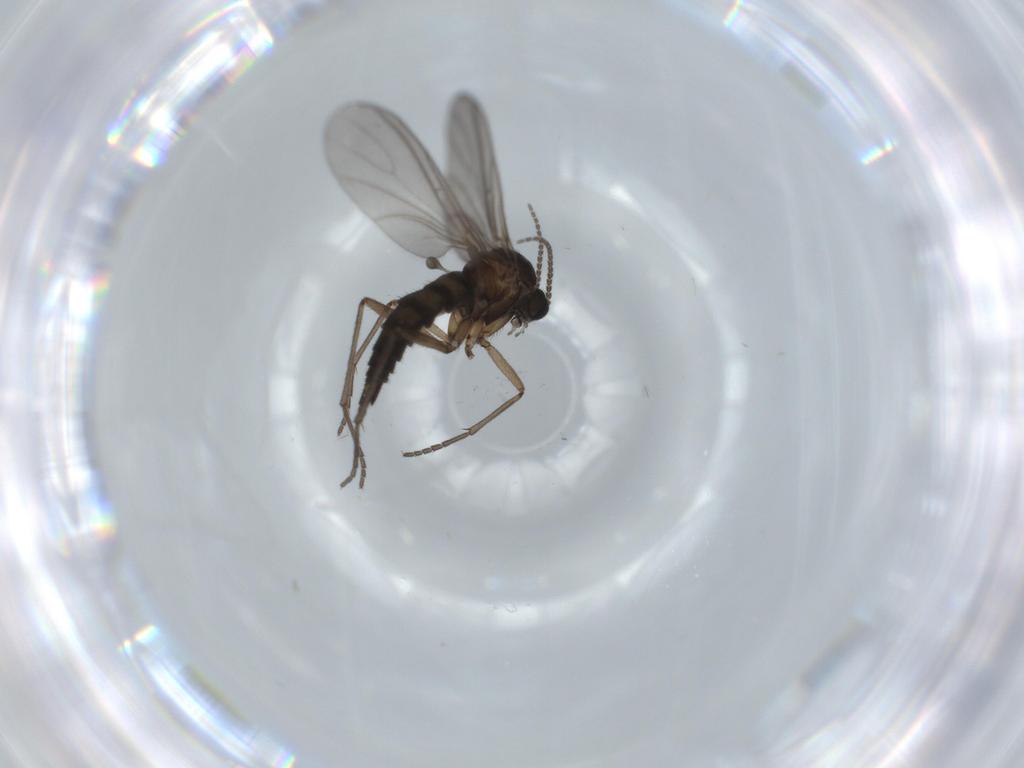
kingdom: Animalia
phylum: Arthropoda
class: Insecta
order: Diptera
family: Sciaridae
